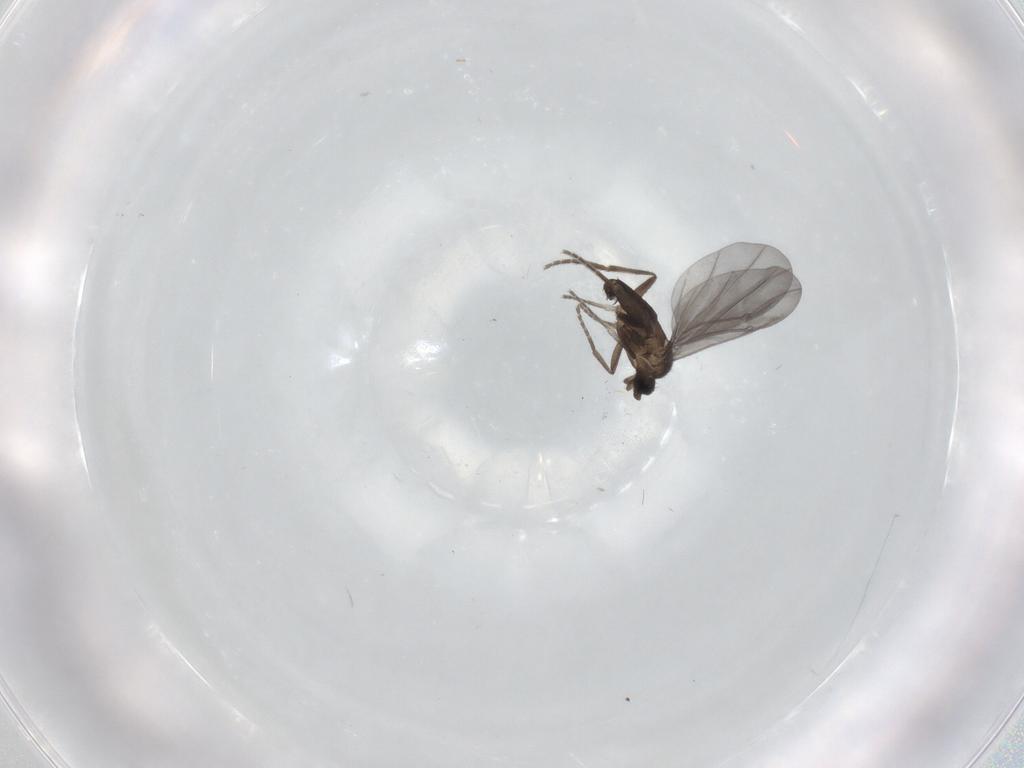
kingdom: Animalia
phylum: Arthropoda
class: Insecta
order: Diptera
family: Phoridae
